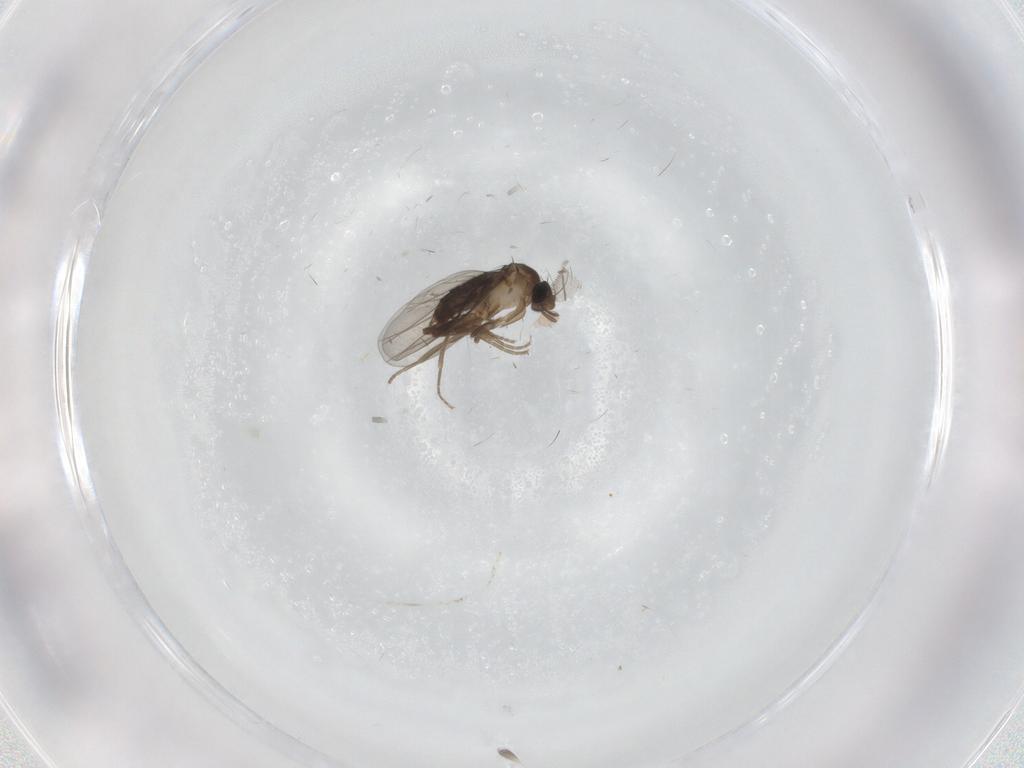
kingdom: Animalia
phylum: Arthropoda
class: Insecta
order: Diptera
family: Psychodidae
